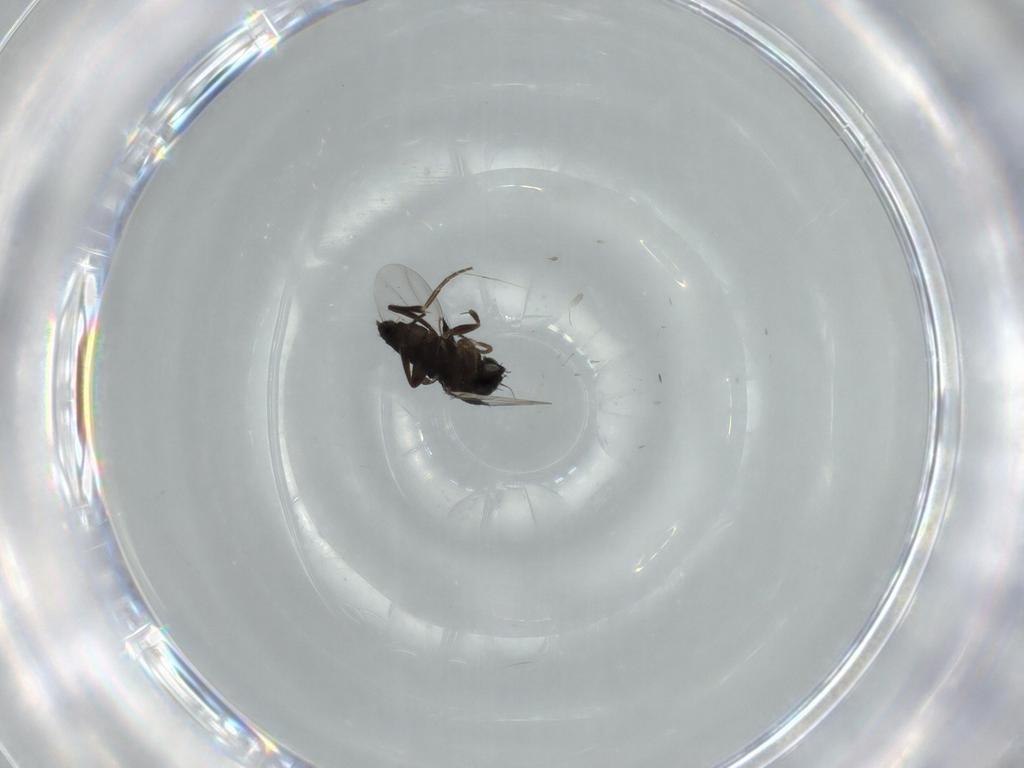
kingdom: Animalia
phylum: Arthropoda
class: Insecta
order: Diptera
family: Phoridae
